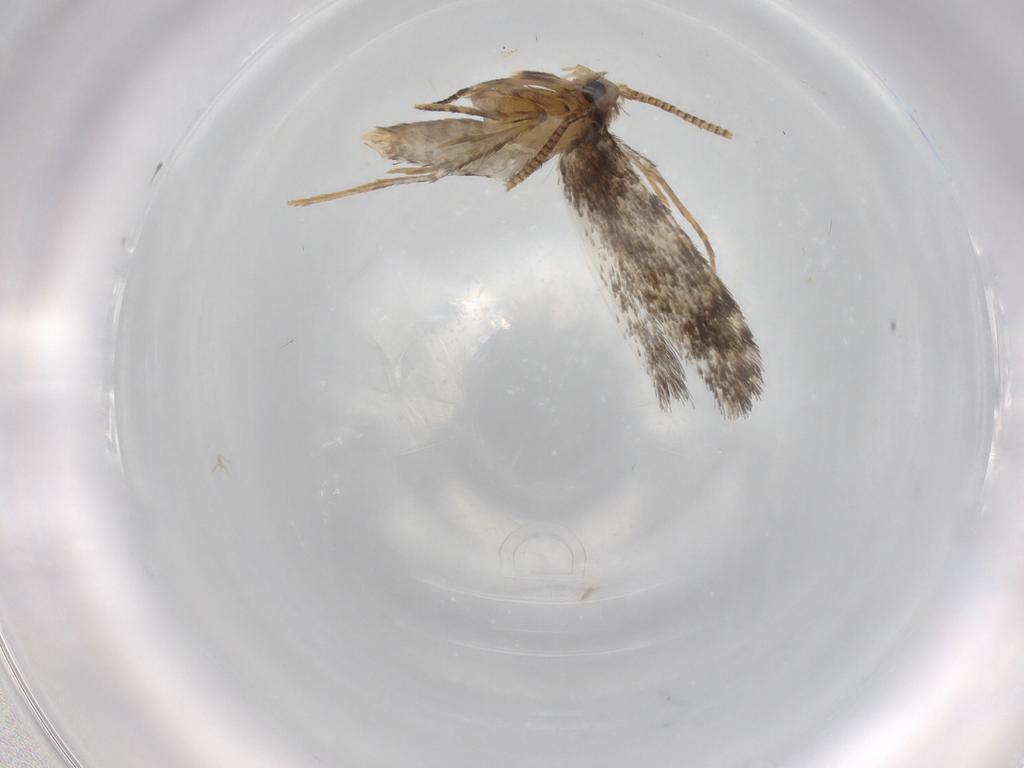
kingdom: Animalia
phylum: Arthropoda
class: Insecta
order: Lepidoptera
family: Tineidae
